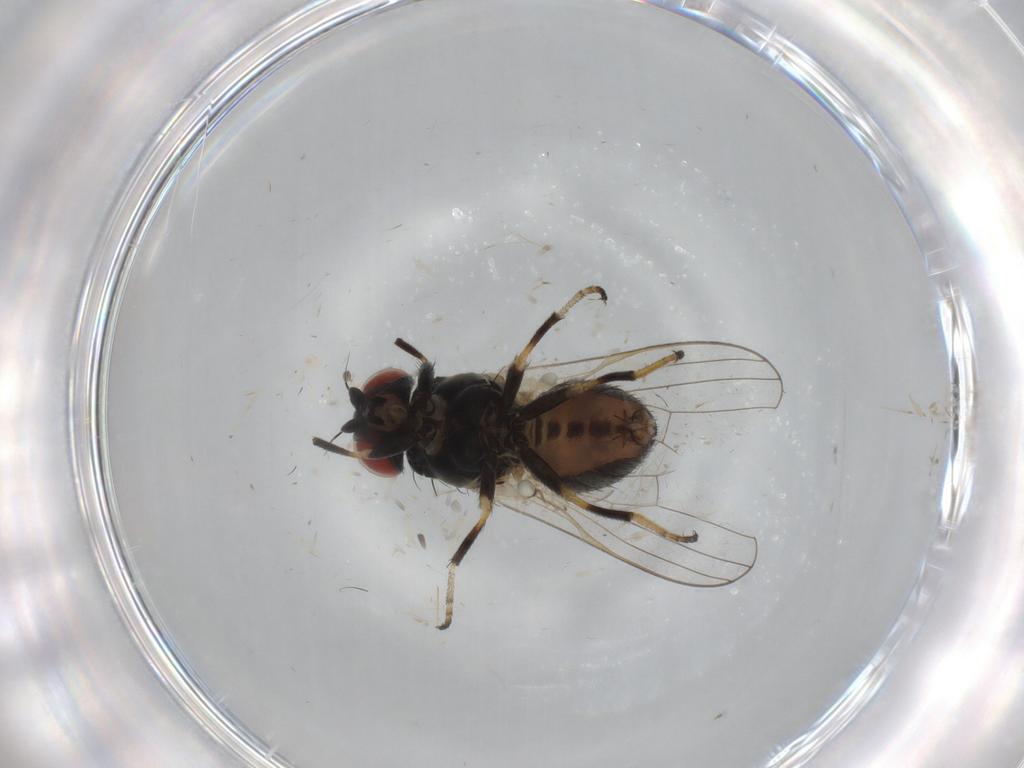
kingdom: Animalia
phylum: Arthropoda
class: Insecta
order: Diptera
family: Chamaemyiidae
